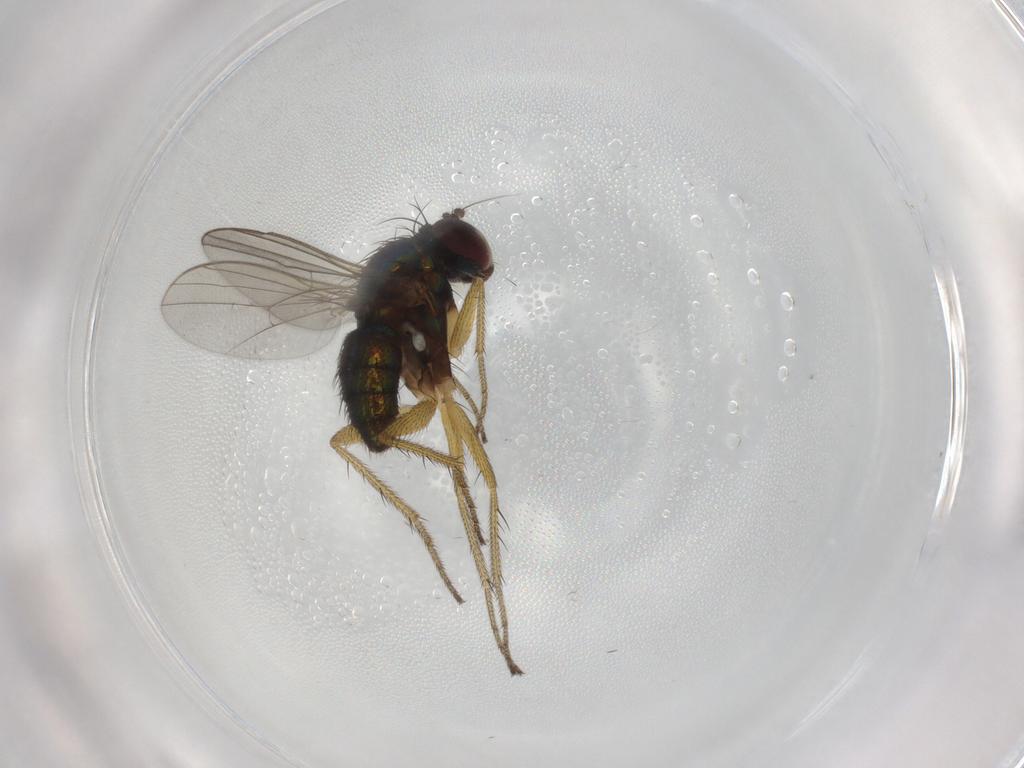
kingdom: Animalia
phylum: Arthropoda
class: Insecta
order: Diptera
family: Dolichopodidae
